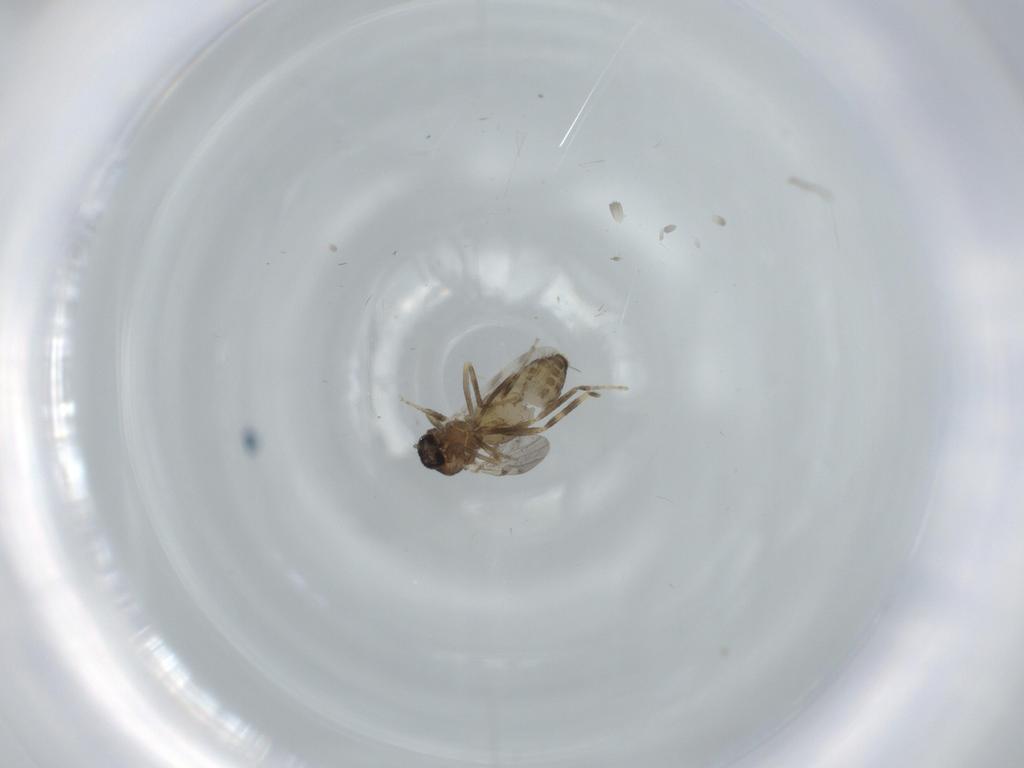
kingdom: Animalia
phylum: Arthropoda
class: Insecta
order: Diptera
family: Ceratopogonidae
